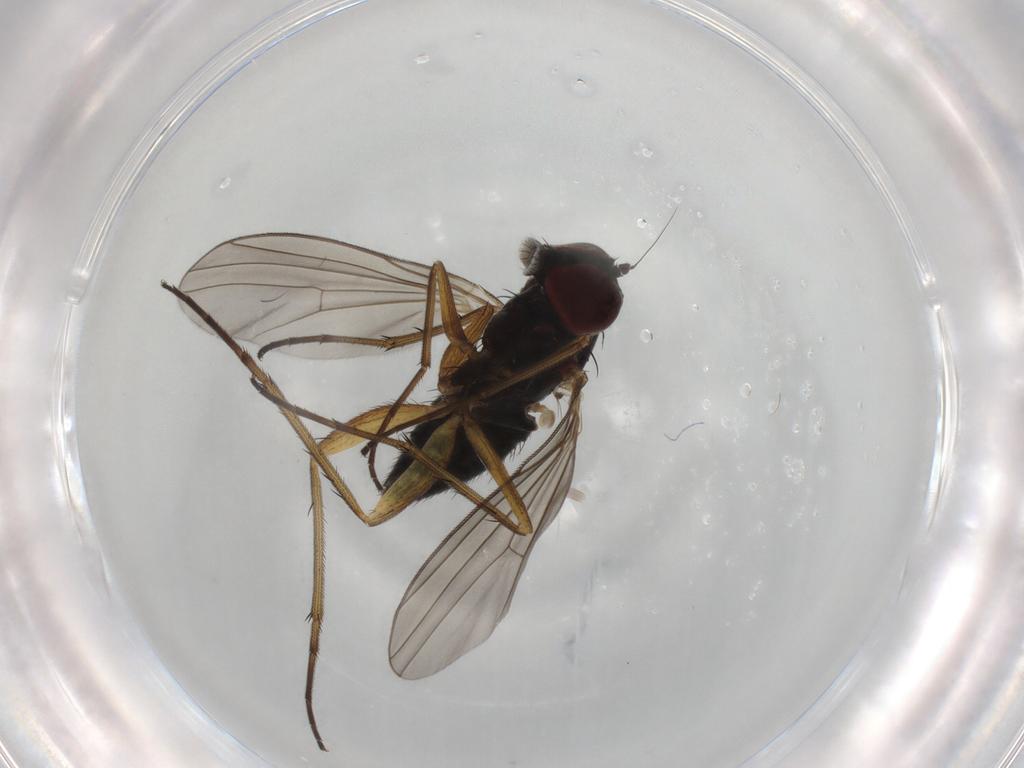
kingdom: Animalia
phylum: Arthropoda
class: Insecta
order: Diptera
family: Dolichopodidae
